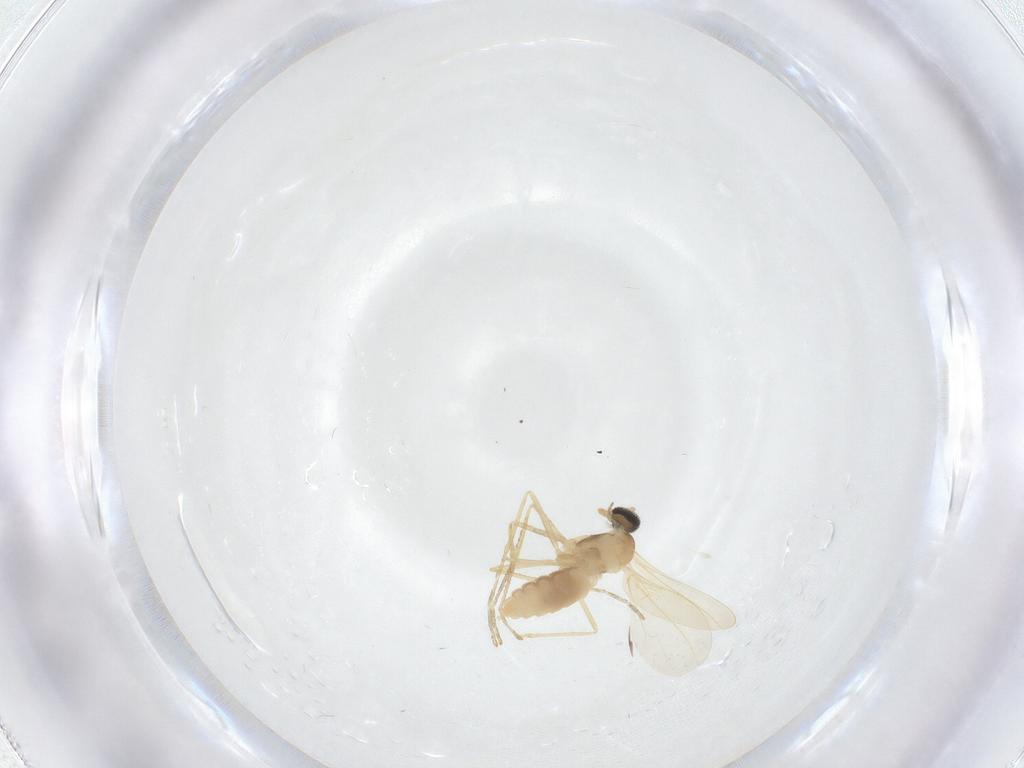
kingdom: Animalia
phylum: Arthropoda
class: Insecta
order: Diptera
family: Cecidomyiidae
